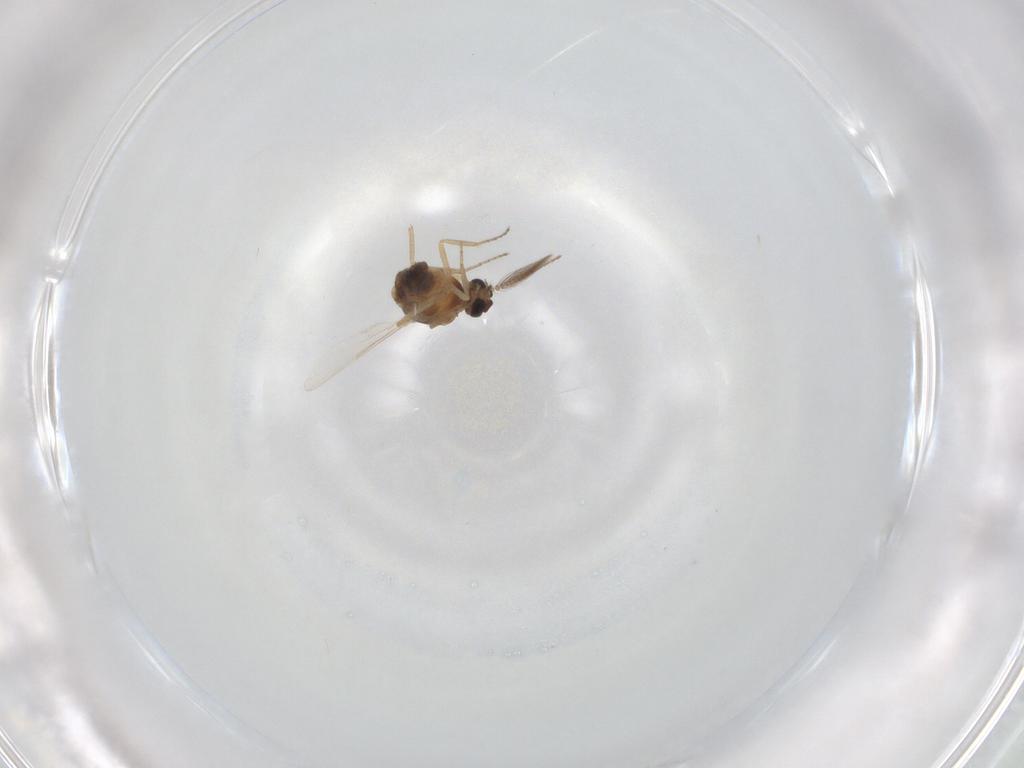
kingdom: Animalia
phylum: Arthropoda
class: Insecta
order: Diptera
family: Ceratopogonidae
